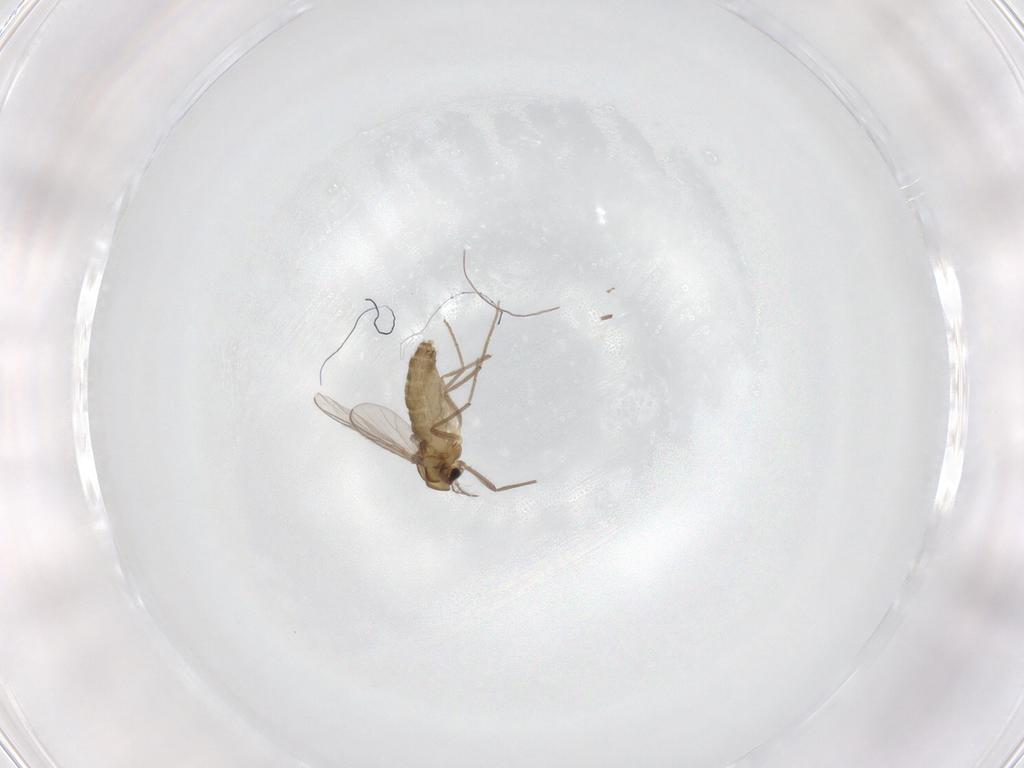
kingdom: Animalia
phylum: Arthropoda
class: Insecta
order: Diptera
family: Chironomidae
